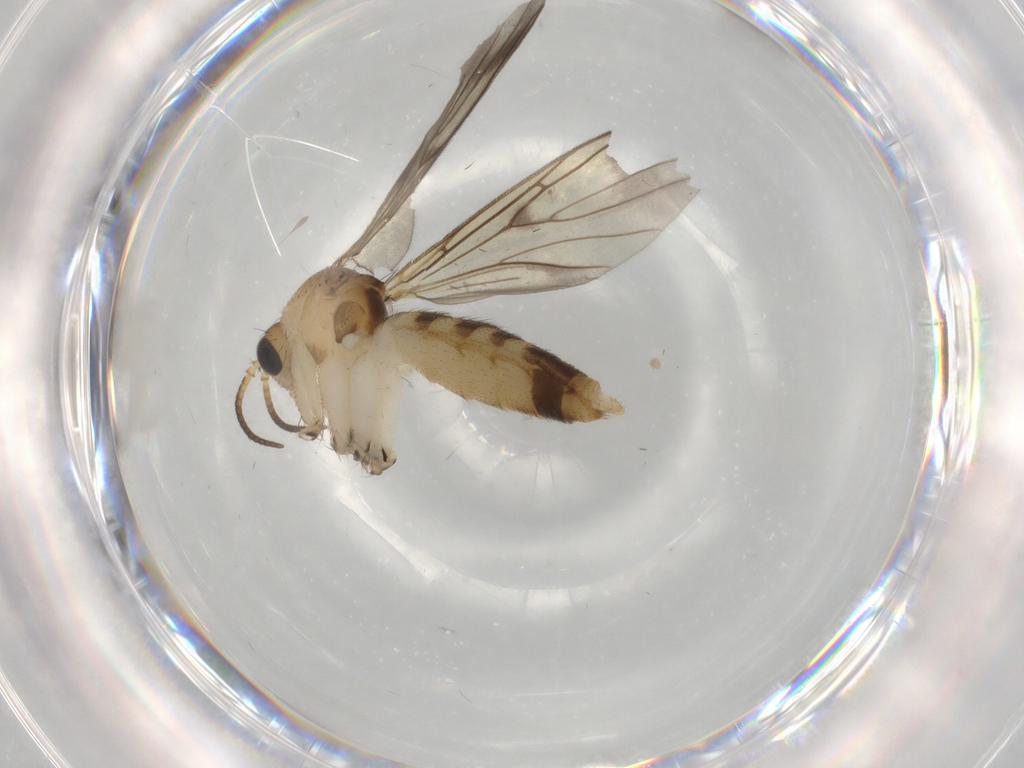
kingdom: Animalia
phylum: Arthropoda
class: Insecta
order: Diptera
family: Mycetophilidae
